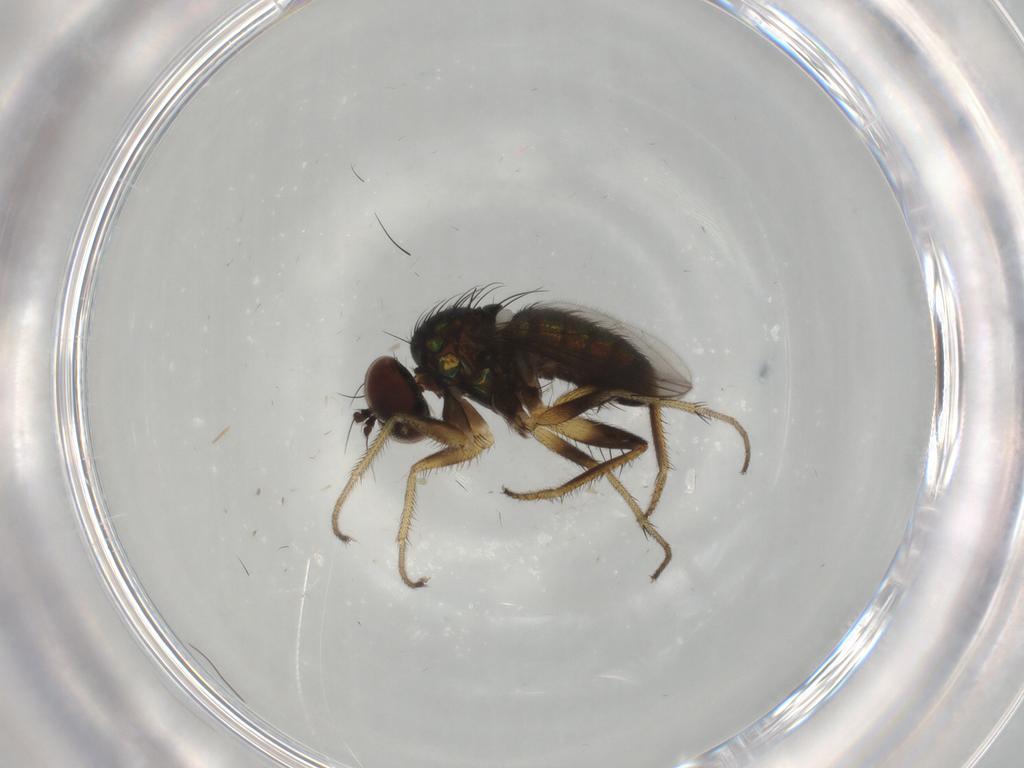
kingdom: Animalia
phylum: Arthropoda
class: Insecta
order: Diptera
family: Dolichopodidae
